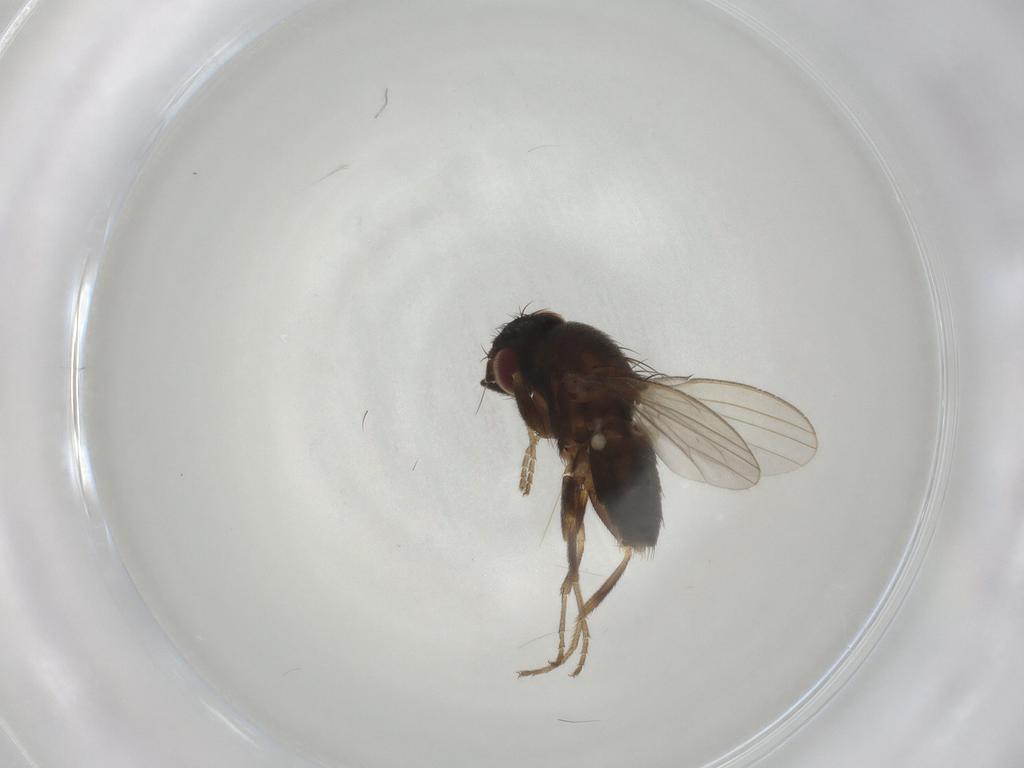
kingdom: Animalia
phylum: Arthropoda
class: Insecta
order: Diptera
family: Milichiidae
